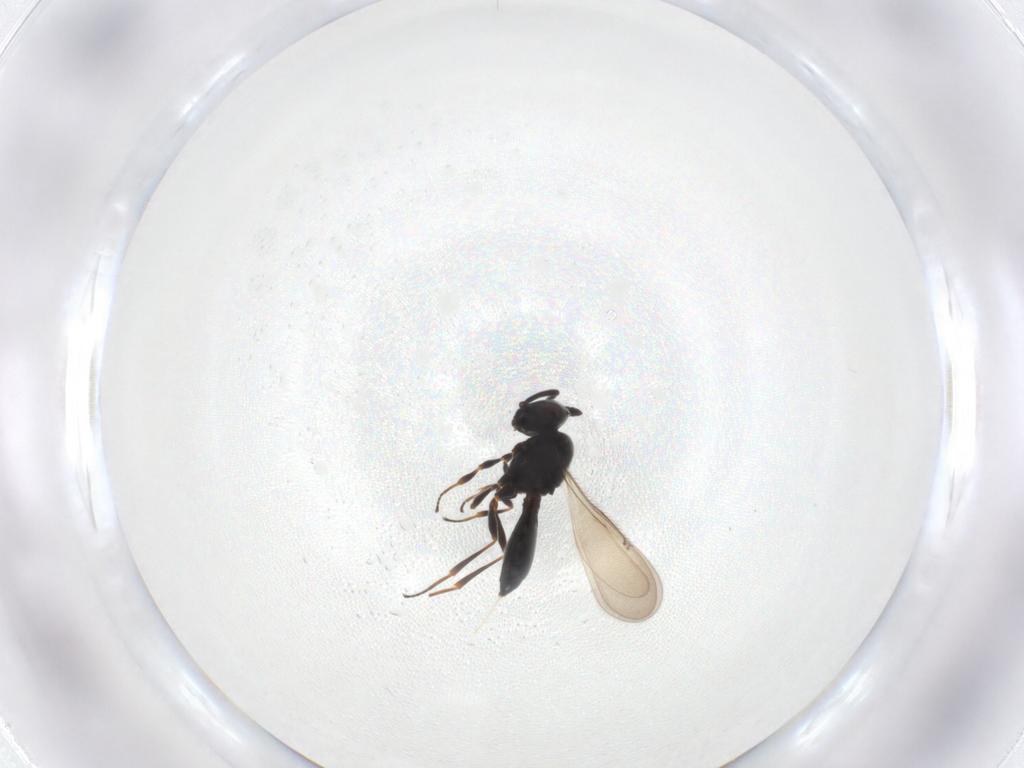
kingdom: Animalia
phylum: Arthropoda
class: Insecta
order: Hymenoptera
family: Scelionidae
